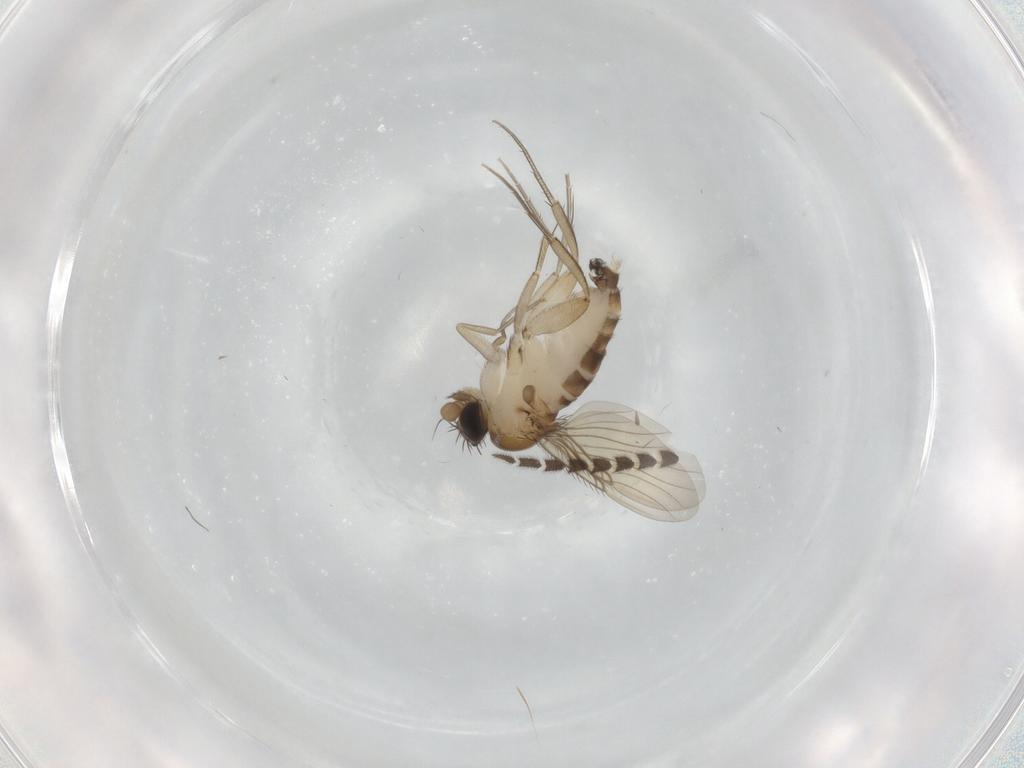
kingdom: Animalia
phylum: Arthropoda
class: Insecta
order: Diptera
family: Phoridae
